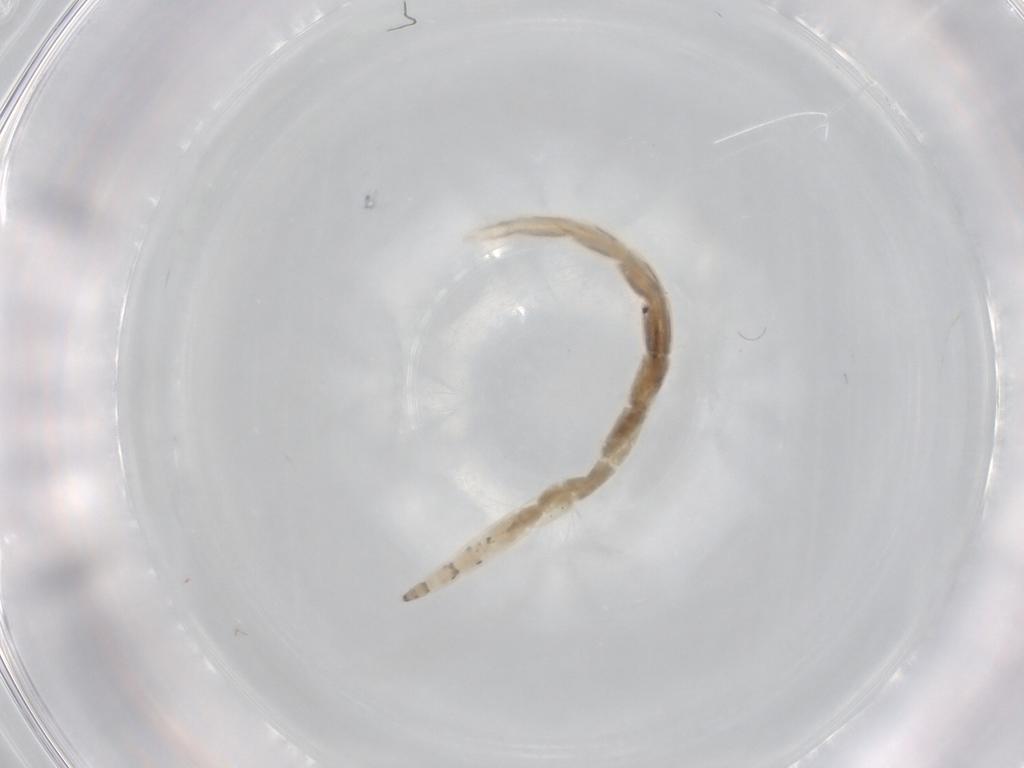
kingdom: Animalia
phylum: Arthropoda
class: Insecta
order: Diptera
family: Ceratopogonidae
